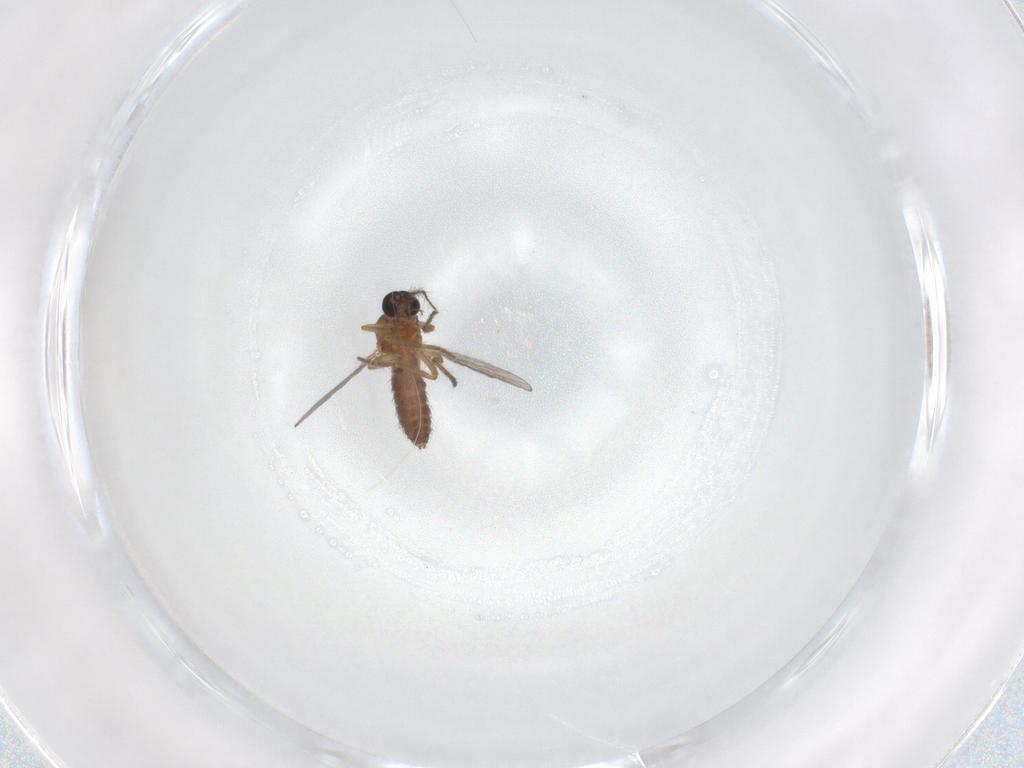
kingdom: Animalia
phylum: Arthropoda
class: Insecta
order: Diptera
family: Ceratopogonidae
